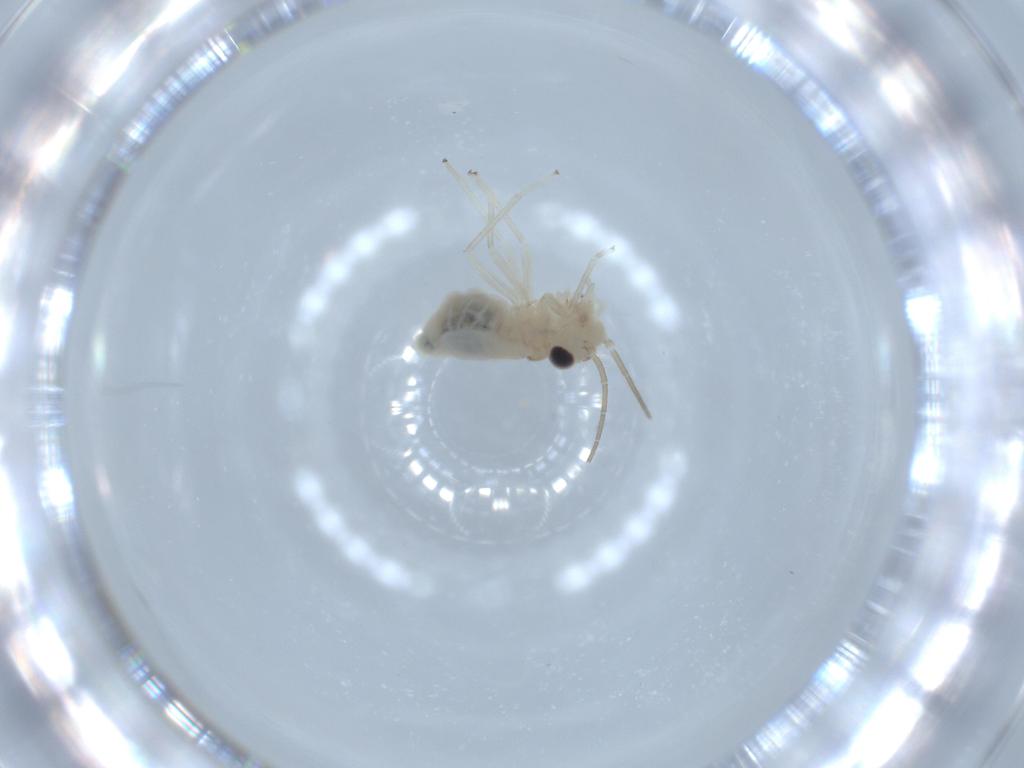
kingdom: Animalia
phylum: Arthropoda
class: Insecta
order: Psocodea
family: Caeciliusidae
